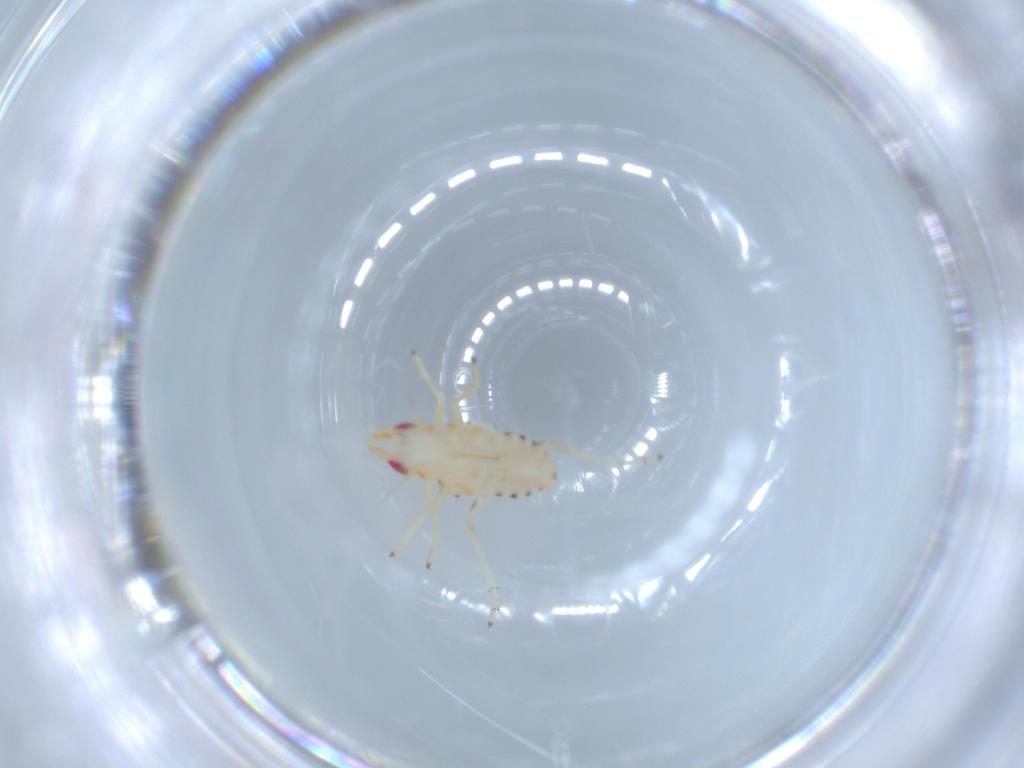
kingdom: Animalia
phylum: Arthropoda
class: Insecta
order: Hemiptera
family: Tropiduchidae
